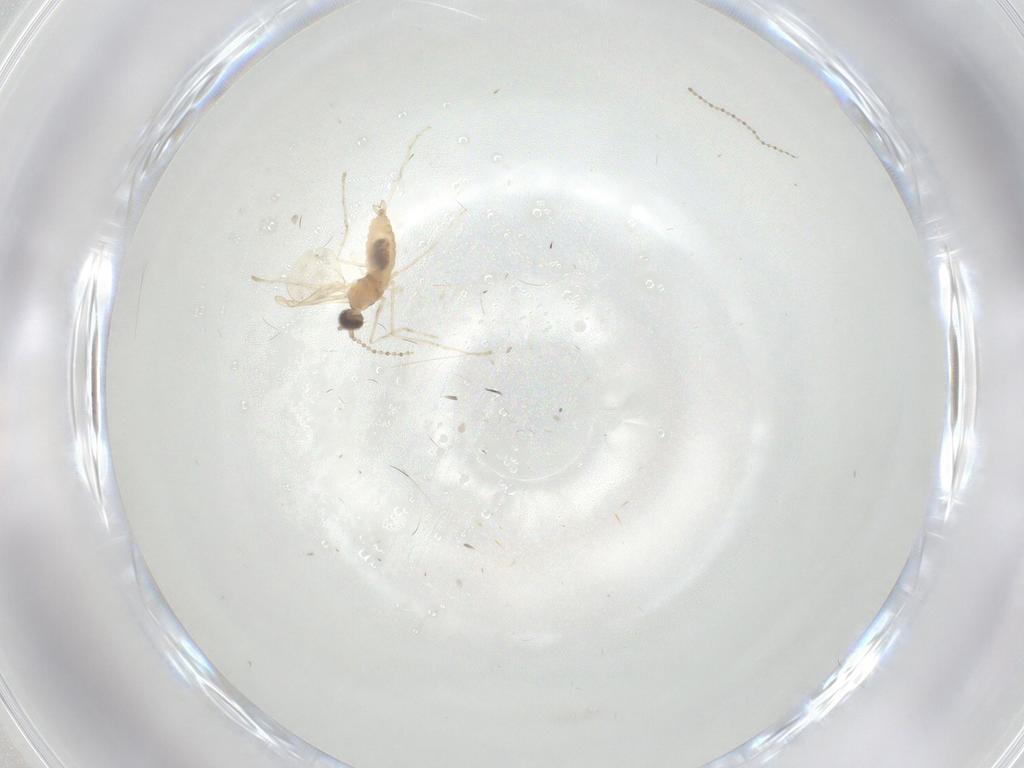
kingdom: Animalia
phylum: Arthropoda
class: Insecta
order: Diptera
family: Cecidomyiidae
